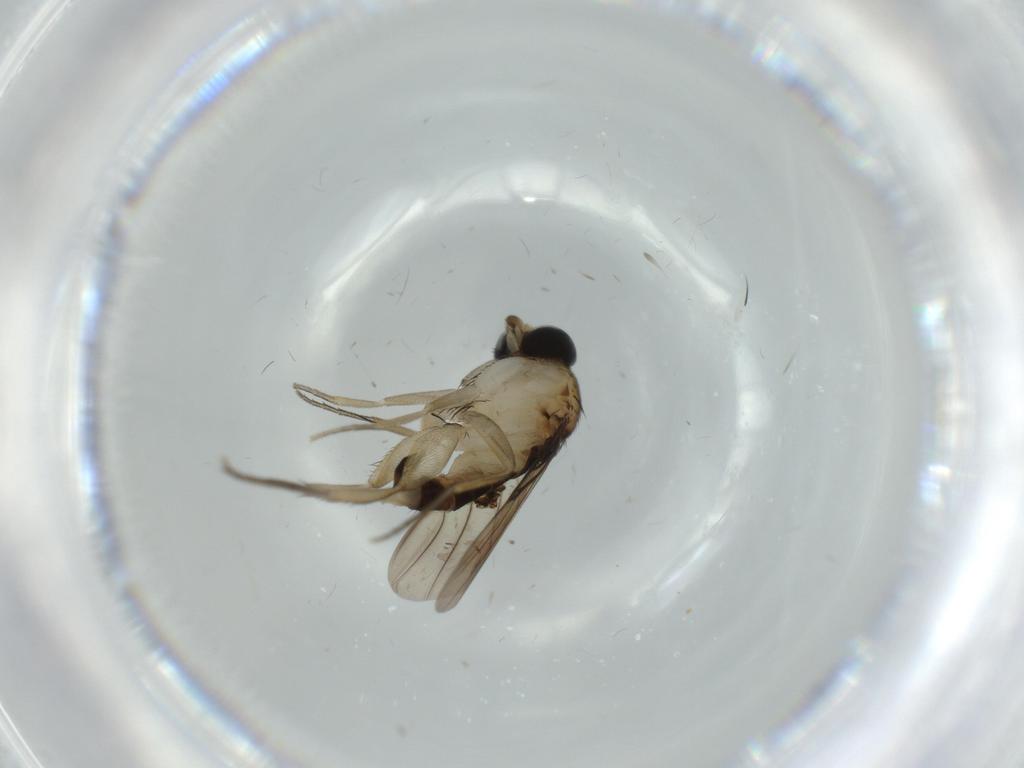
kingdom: Animalia
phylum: Arthropoda
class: Insecta
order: Diptera
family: Phoridae
